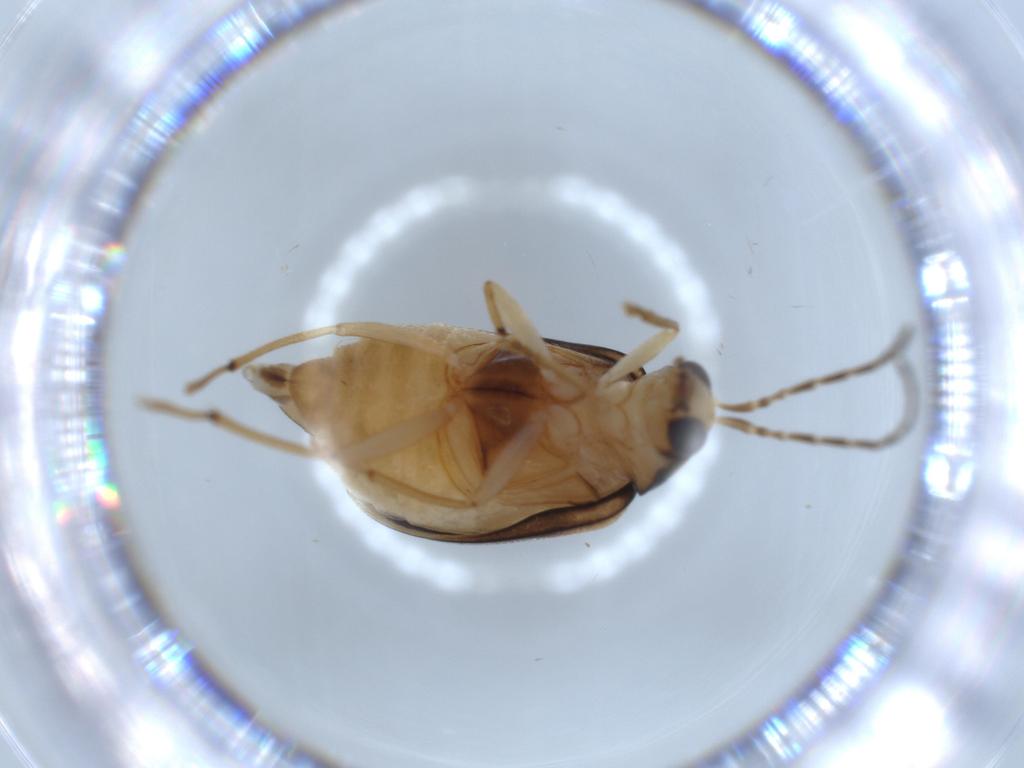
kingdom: Animalia
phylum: Arthropoda
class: Insecta
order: Coleoptera
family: Chrysomelidae
